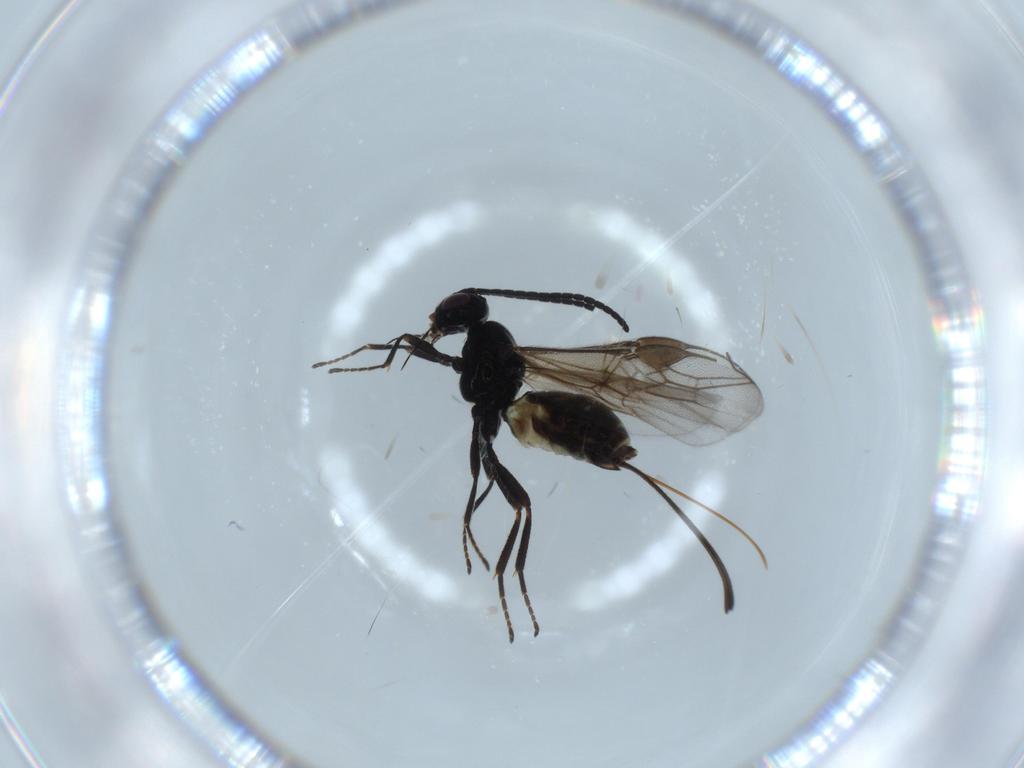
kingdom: Animalia
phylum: Arthropoda
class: Insecta
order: Hymenoptera
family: Braconidae
